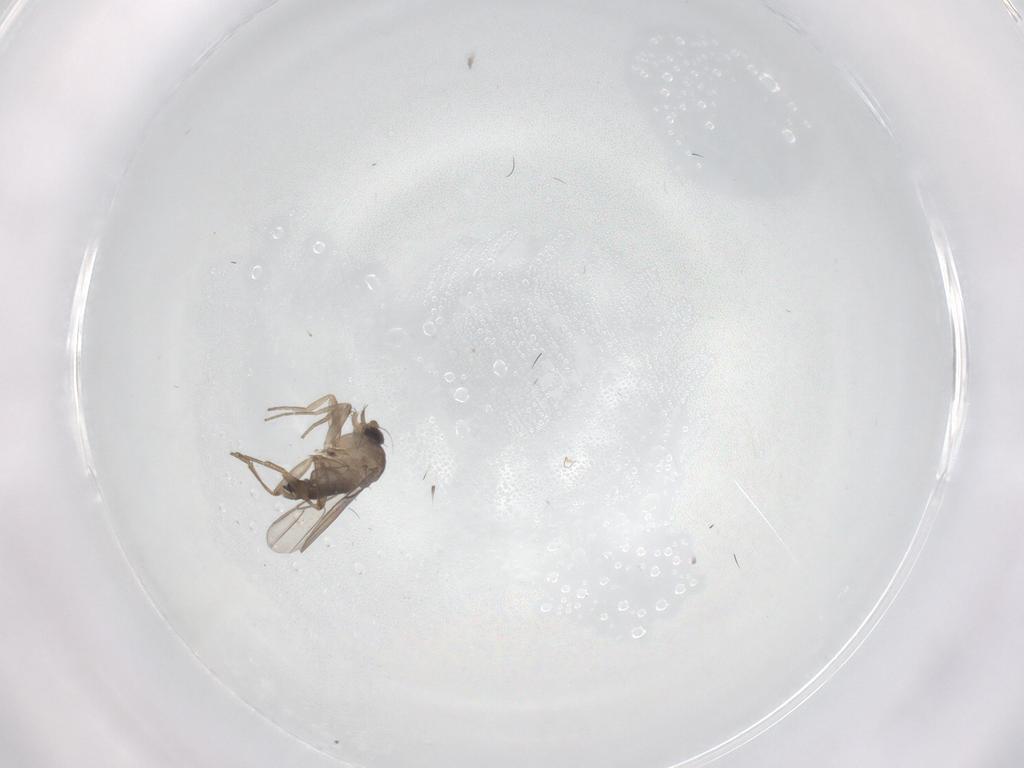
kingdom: Animalia
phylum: Arthropoda
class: Insecta
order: Diptera
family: Phoridae
